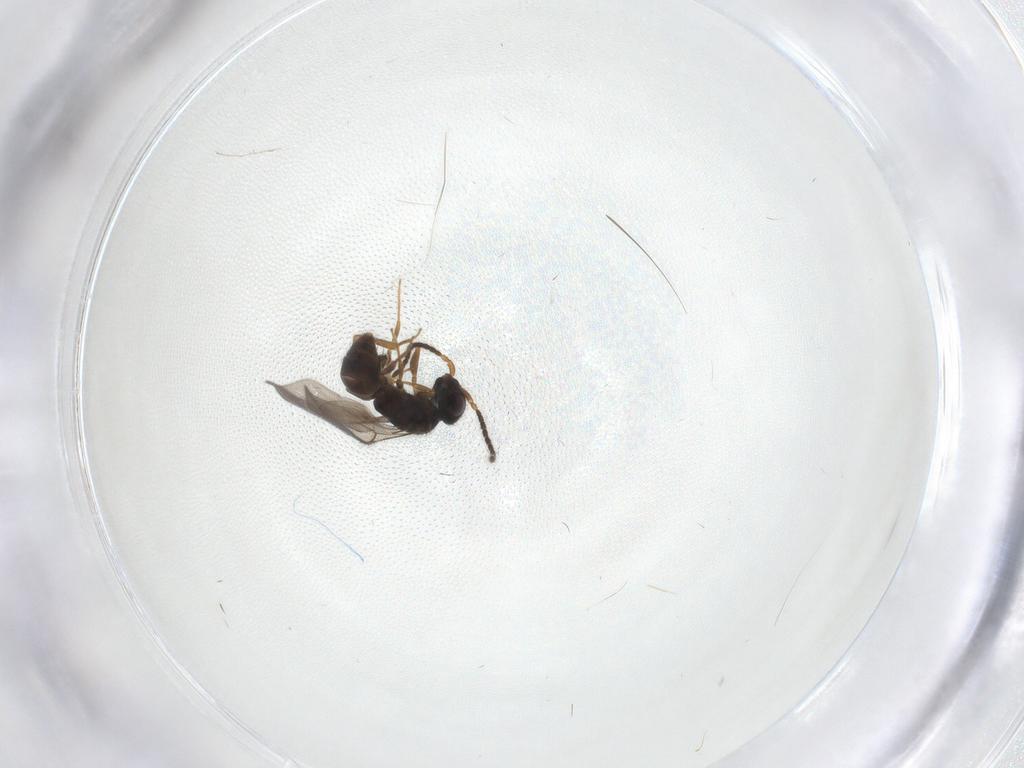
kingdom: Animalia
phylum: Arthropoda
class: Insecta
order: Hymenoptera
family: Bethylidae
